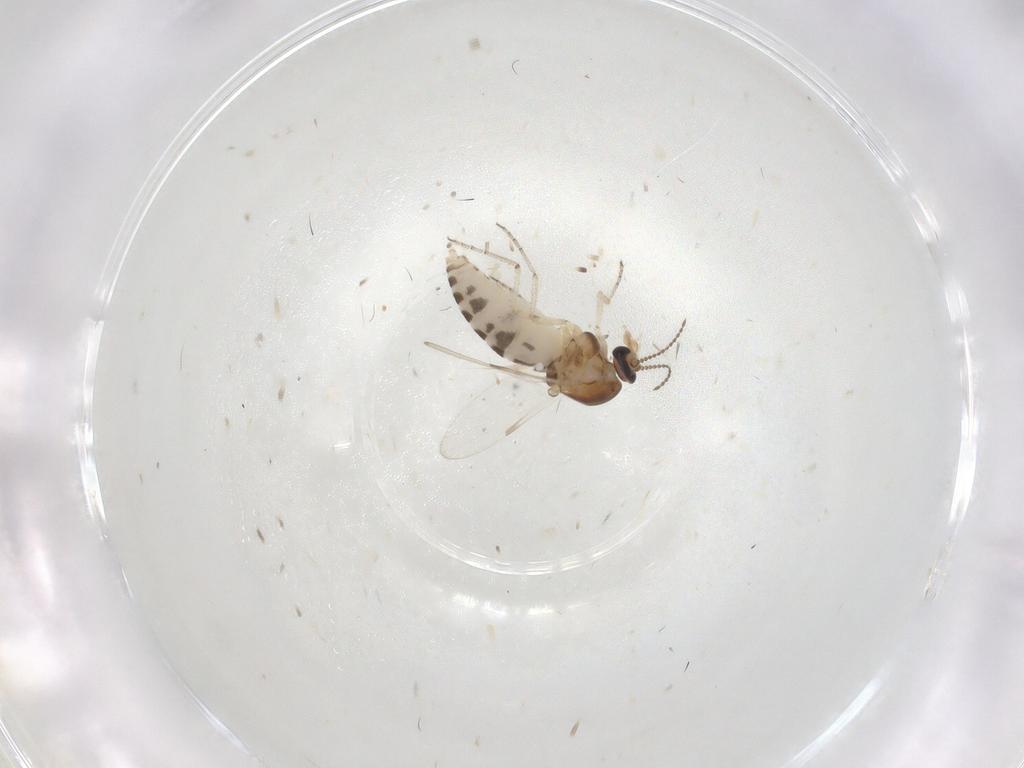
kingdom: Animalia
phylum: Arthropoda
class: Insecta
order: Diptera
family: Ceratopogonidae
